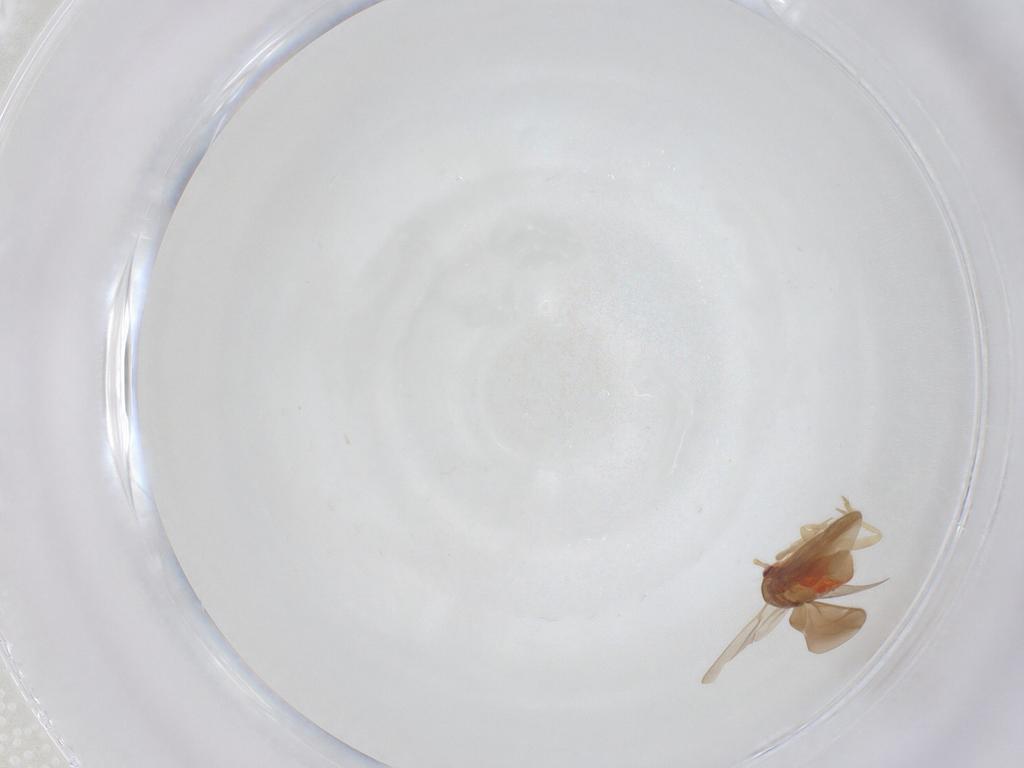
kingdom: Animalia
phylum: Arthropoda
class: Insecta
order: Hemiptera
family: Ceratocombidae
